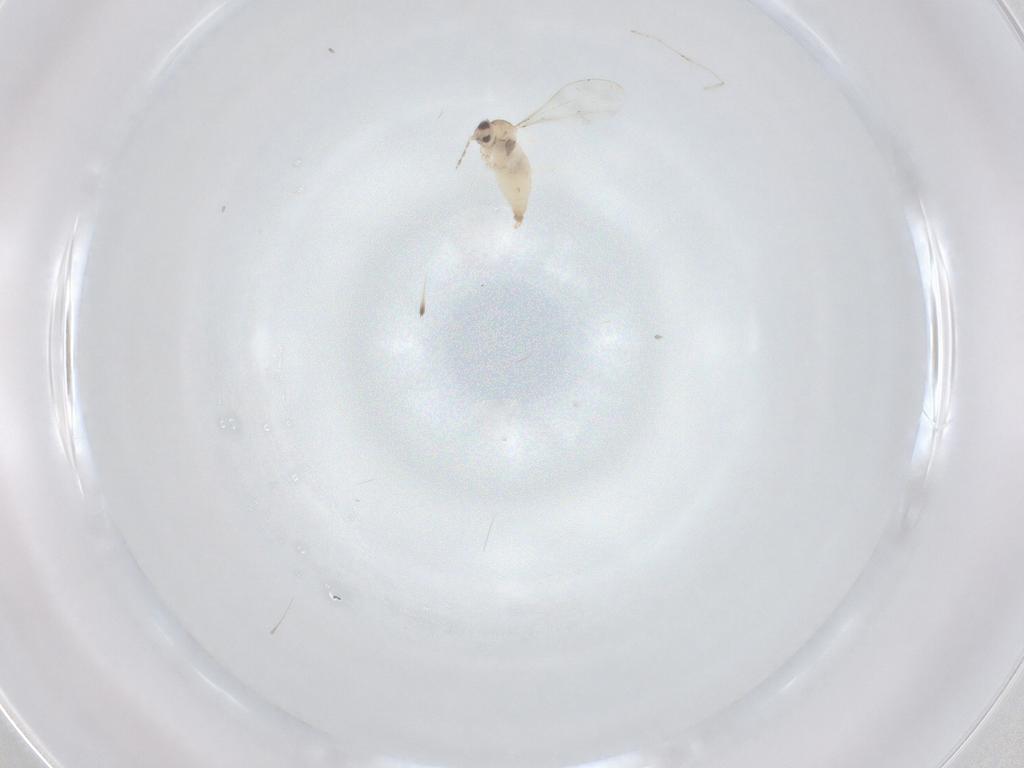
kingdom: Animalia
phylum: Arthropoda
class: Insecta
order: Diptera
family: Cecidomyiidae
